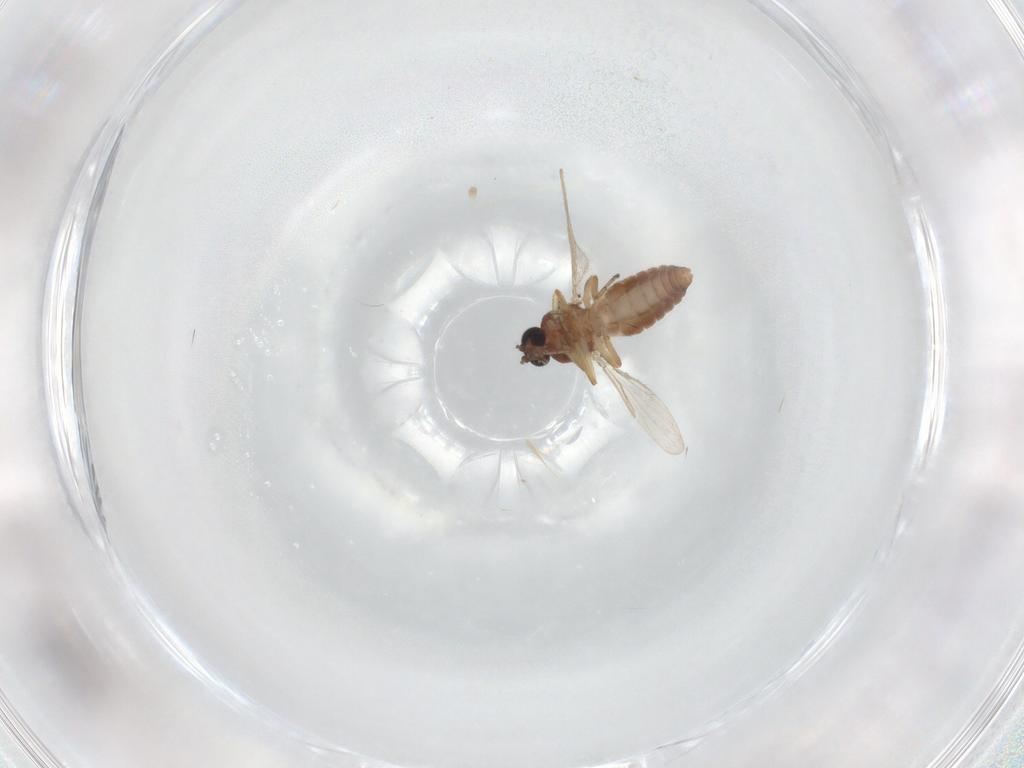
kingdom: Animalia
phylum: Arthropoda
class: Insecta
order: Diptera
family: Ceratopogonidae
